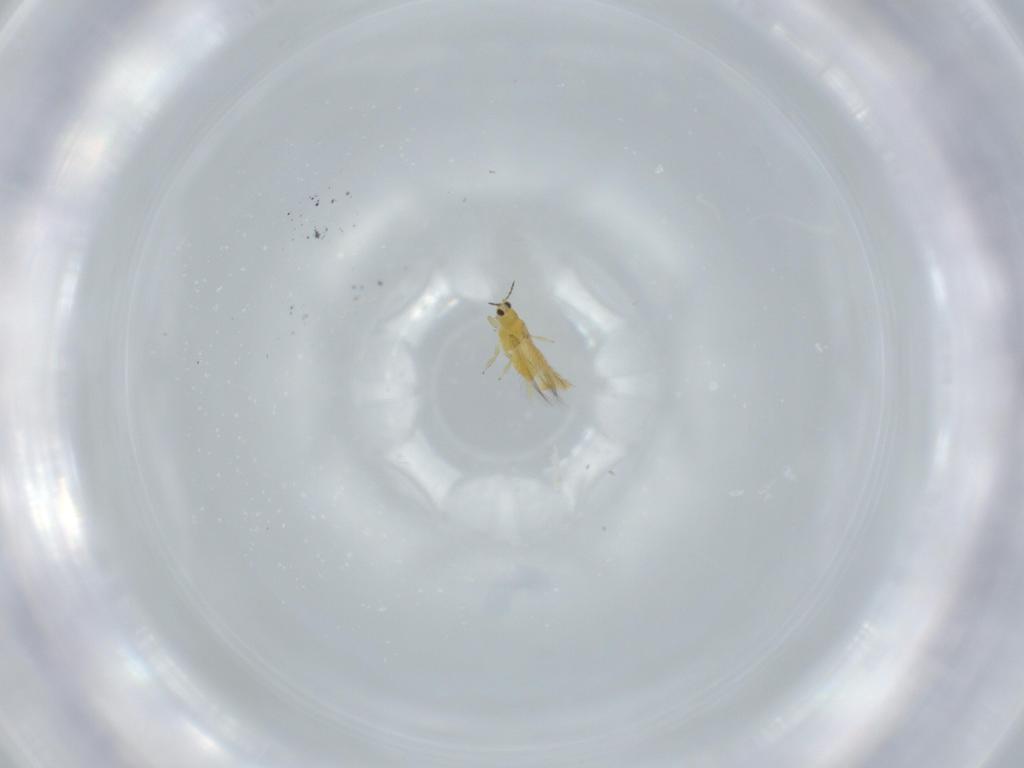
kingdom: Animalia
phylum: Arthropoda
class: Insecta
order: Thysanoptera
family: Thripidae
